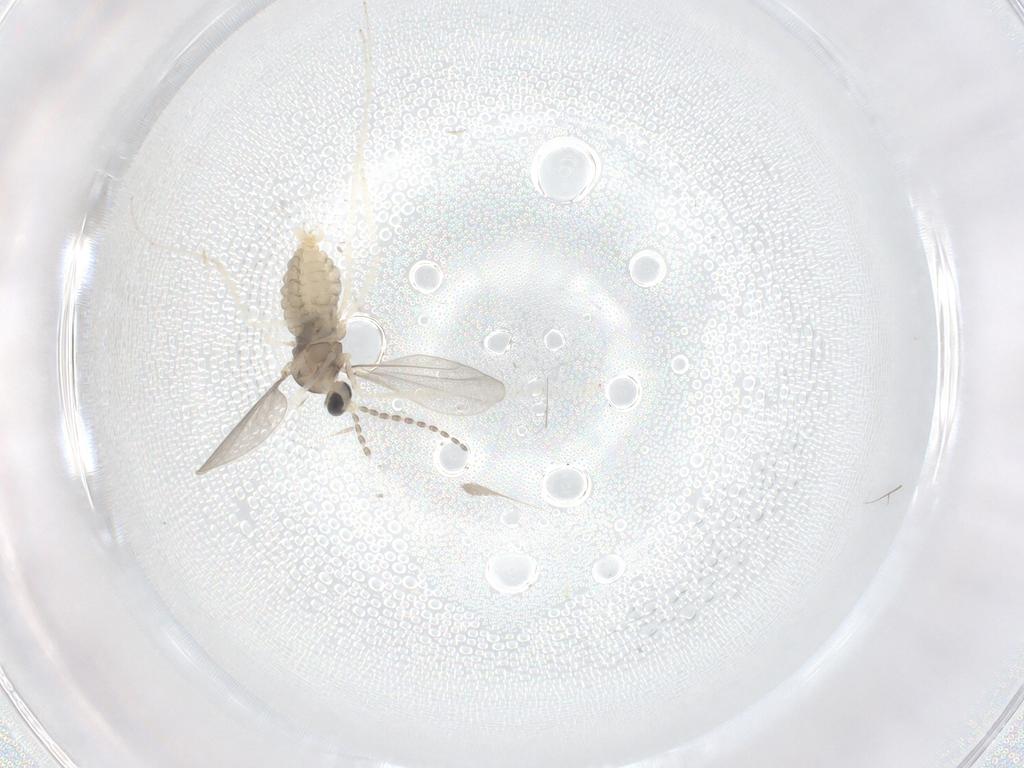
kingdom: Animalia
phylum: Arthropoda
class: Insecta
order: Diptera
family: Cecidomyiidae
